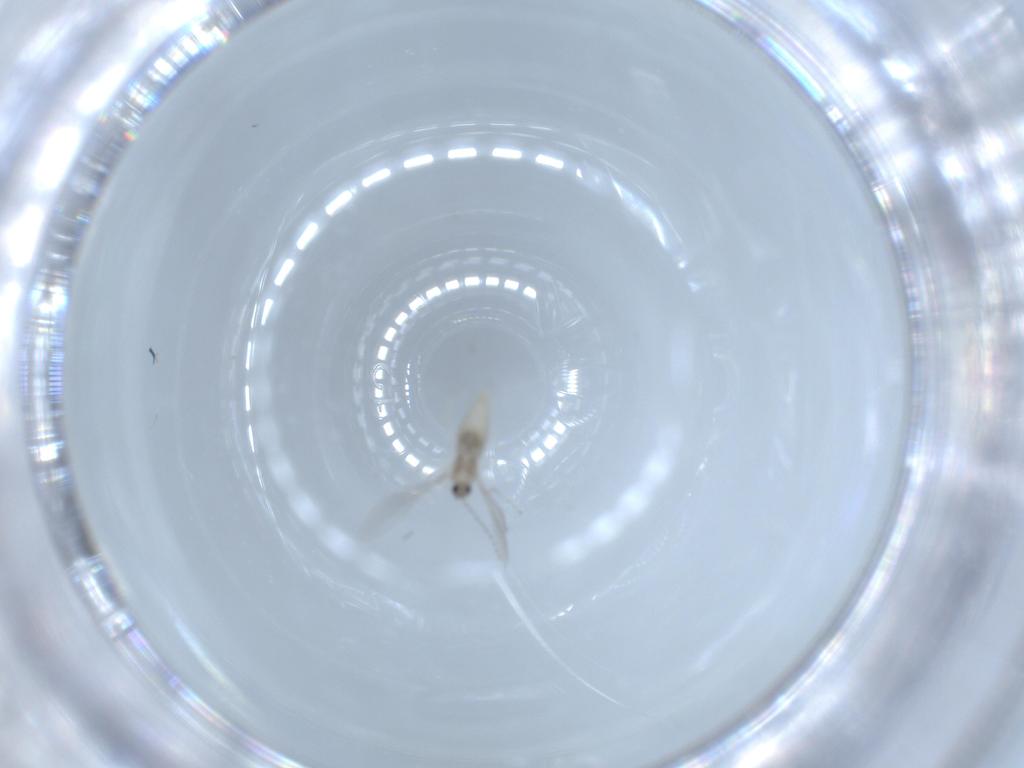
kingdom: Animalia
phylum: Arthropoda
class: Insecta
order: Diptera
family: Cecidomyiidae
